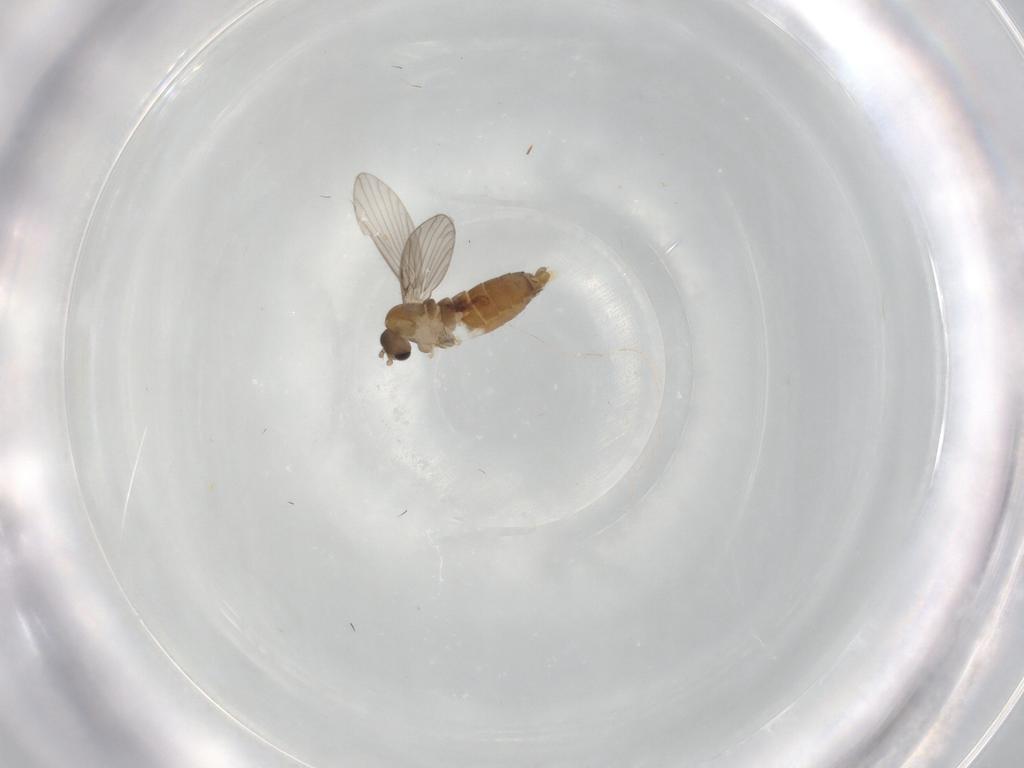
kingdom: Animalia
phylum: Arthropoda
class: Insecta
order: Diptera
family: Psychodidae
